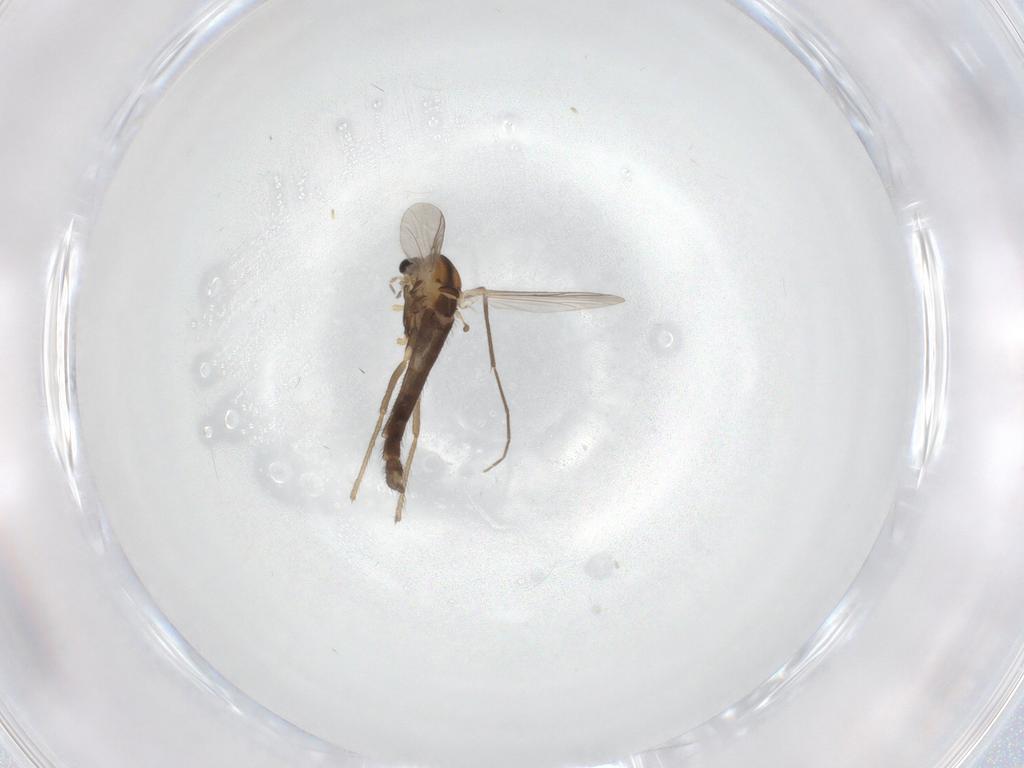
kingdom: Animalia
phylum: Arthropoda
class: Insecta
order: Diptera
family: Chironomidae
